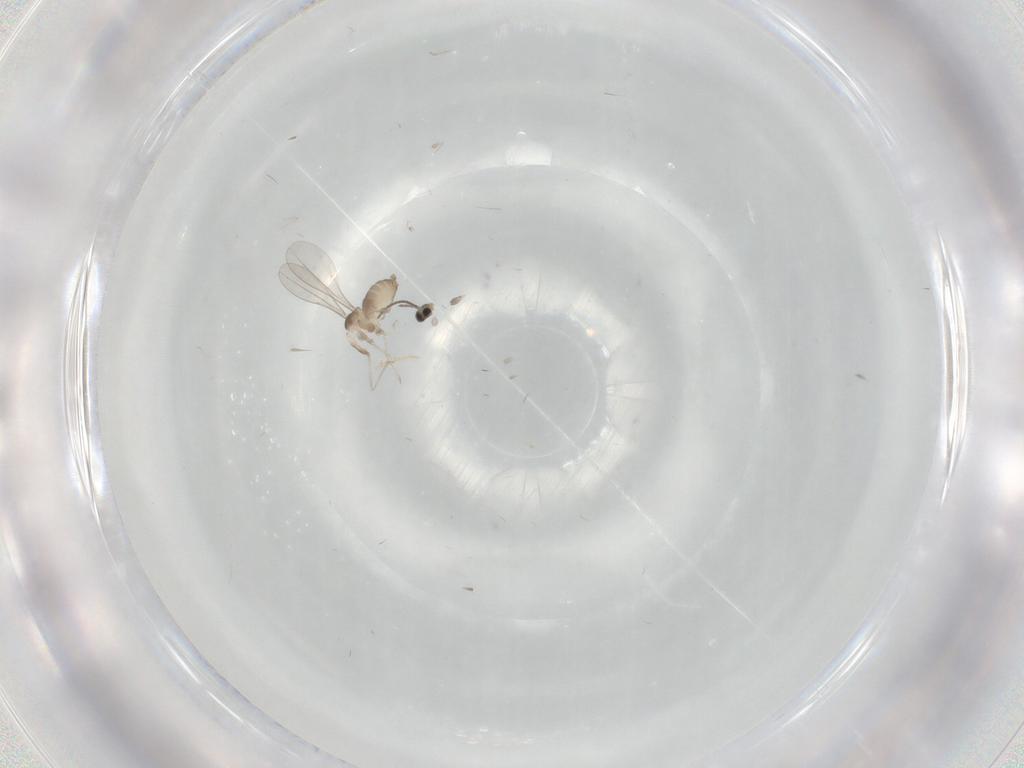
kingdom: Animalia
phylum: Arthropoda
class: Insecta
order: Diptera
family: Cecidomyiidae
